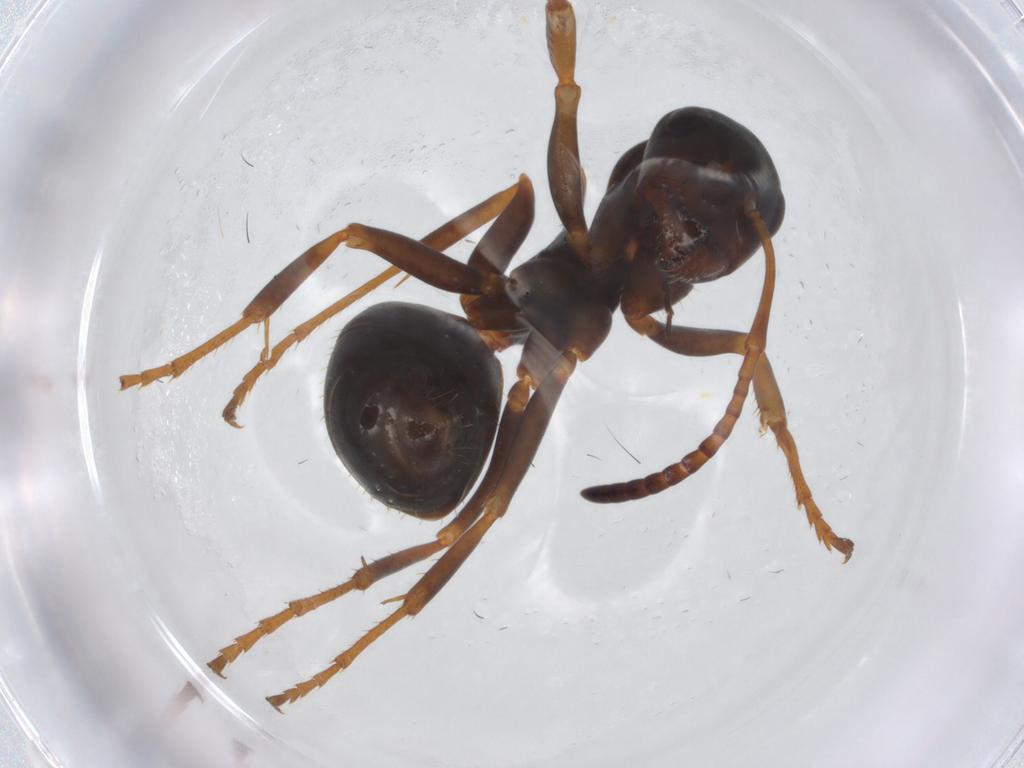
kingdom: Animalia
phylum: Arthropoda
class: Insecta
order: Hymenoptera
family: Formicidae
